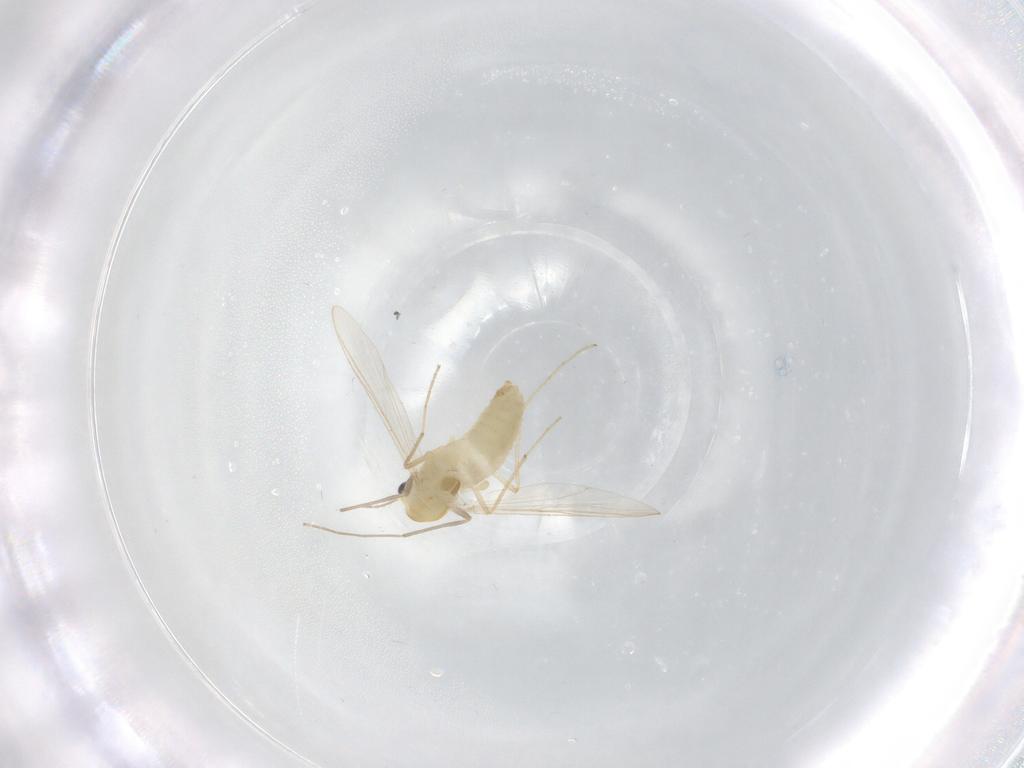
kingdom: Animalia
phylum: Arthropoda
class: Insecta
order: Diptera
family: Chironomidae
